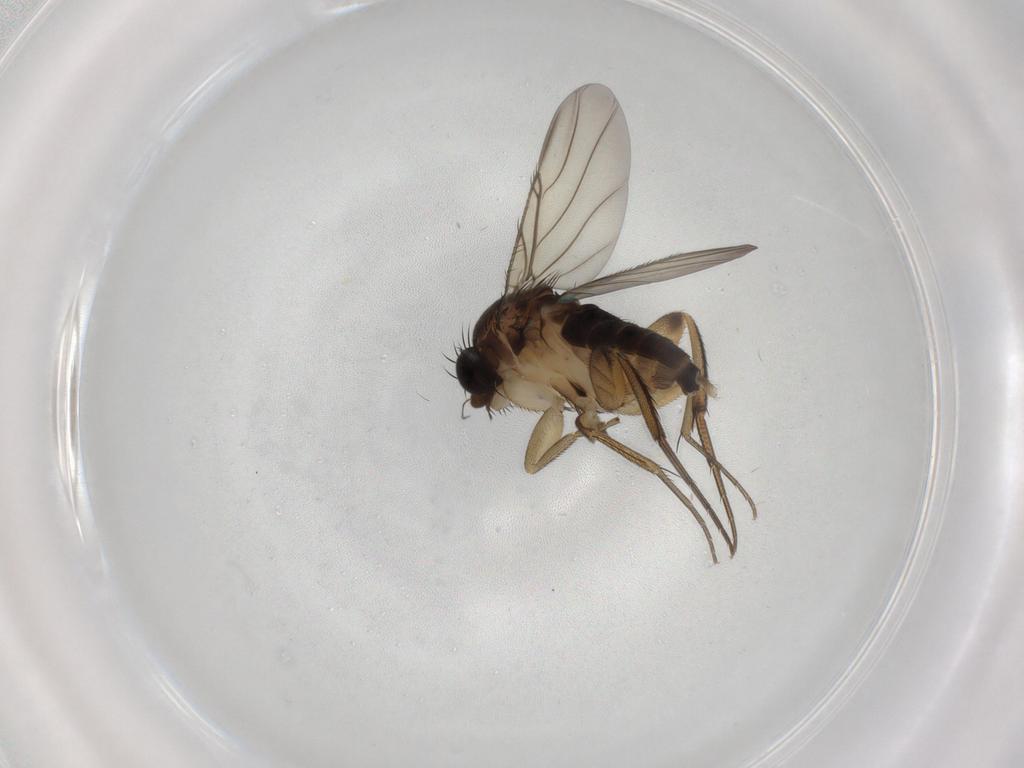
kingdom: Animalia
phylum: Arthropoda
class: Insecta
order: Diptera
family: Phoridae
